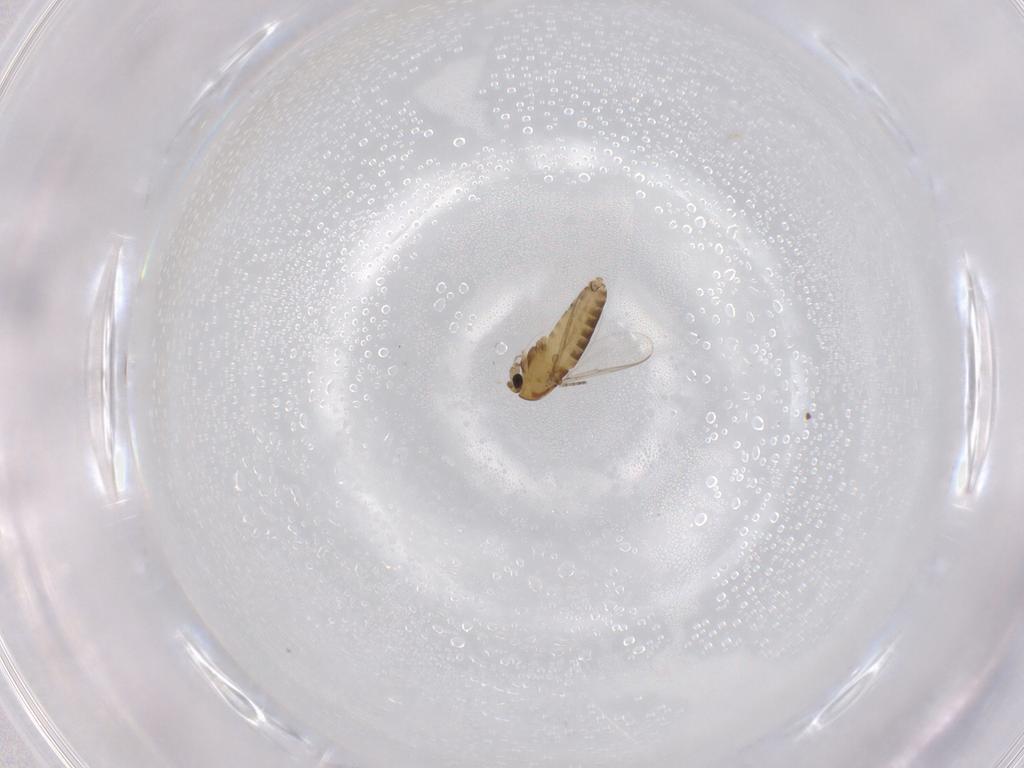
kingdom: Animalia
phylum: Arthropoda
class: Insecta
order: Diptera
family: Chironomidae
